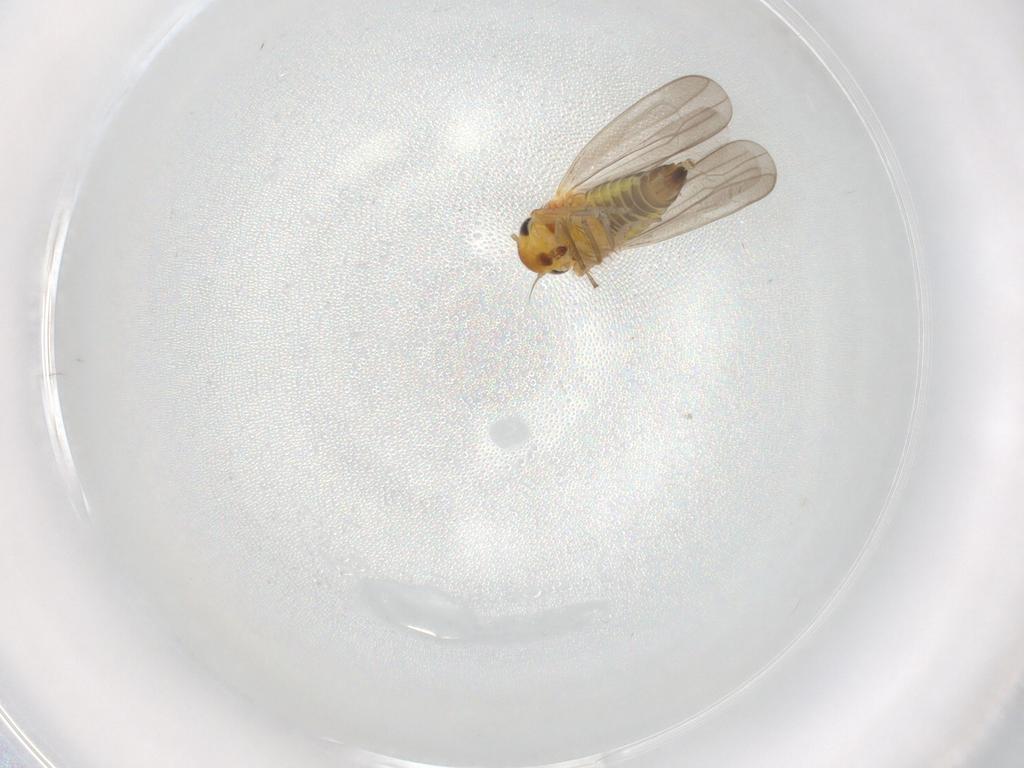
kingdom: Animalia
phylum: Arthropoda
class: Insecta
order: Hemiptera
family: Cicadellidae
